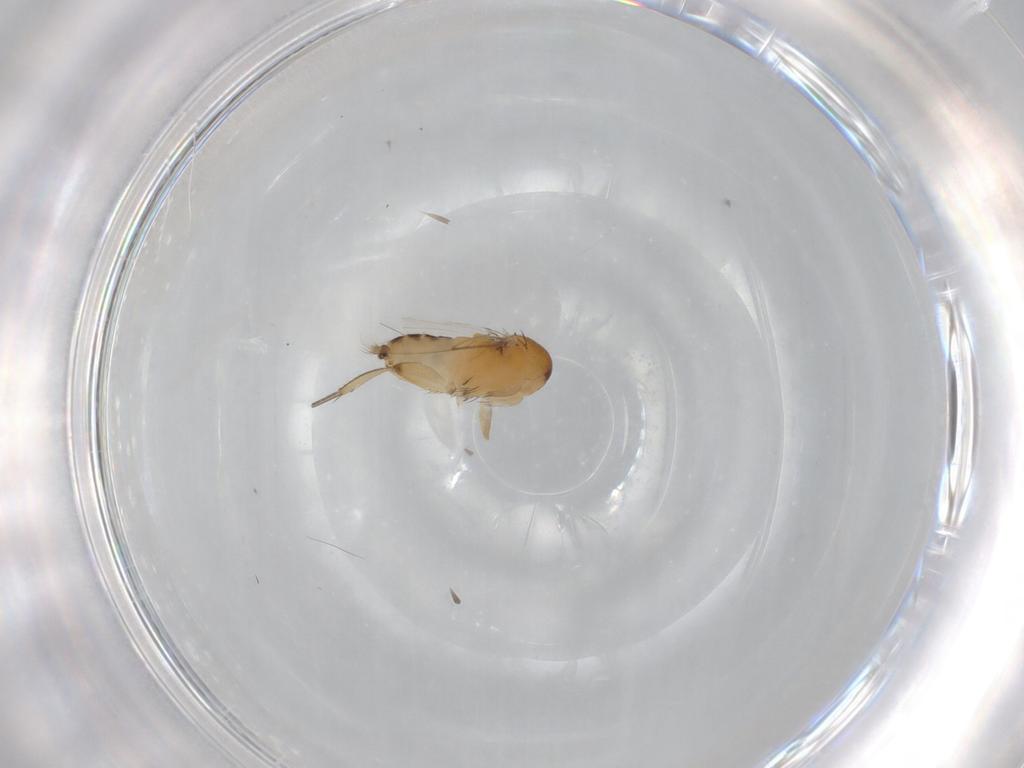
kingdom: Animalia
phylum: Arthropoda
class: Insecta
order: Diptera
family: Phoridae
